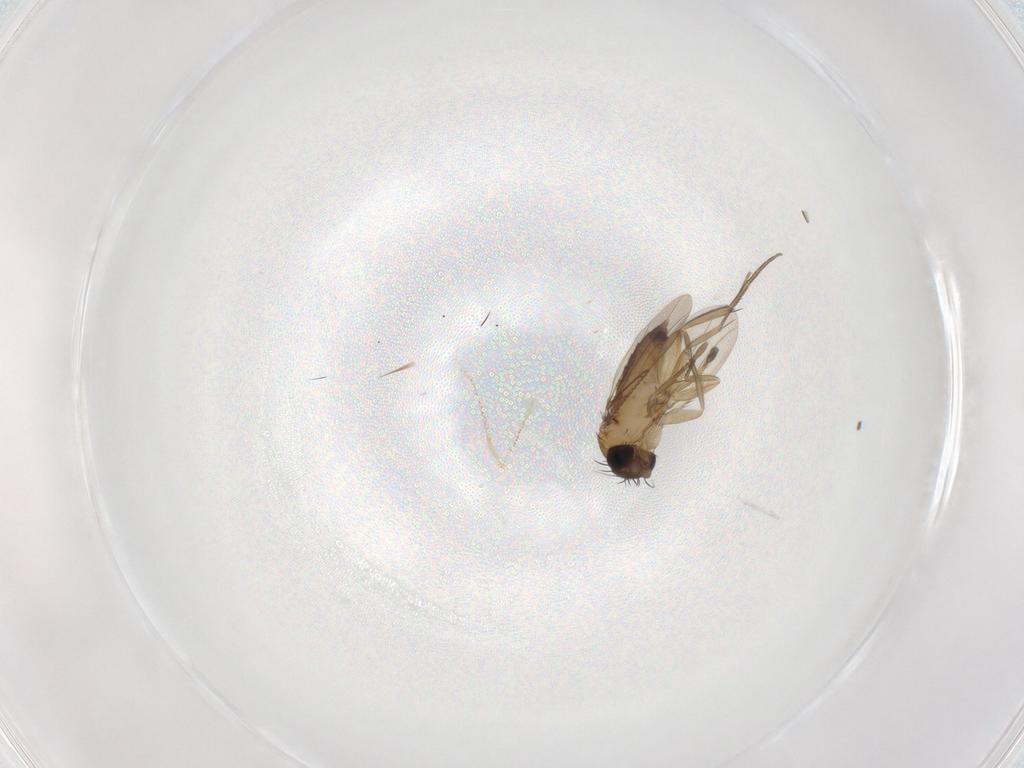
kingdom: Animalia
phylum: Arthropoda
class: Insecta
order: Diptera
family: Phoridae
